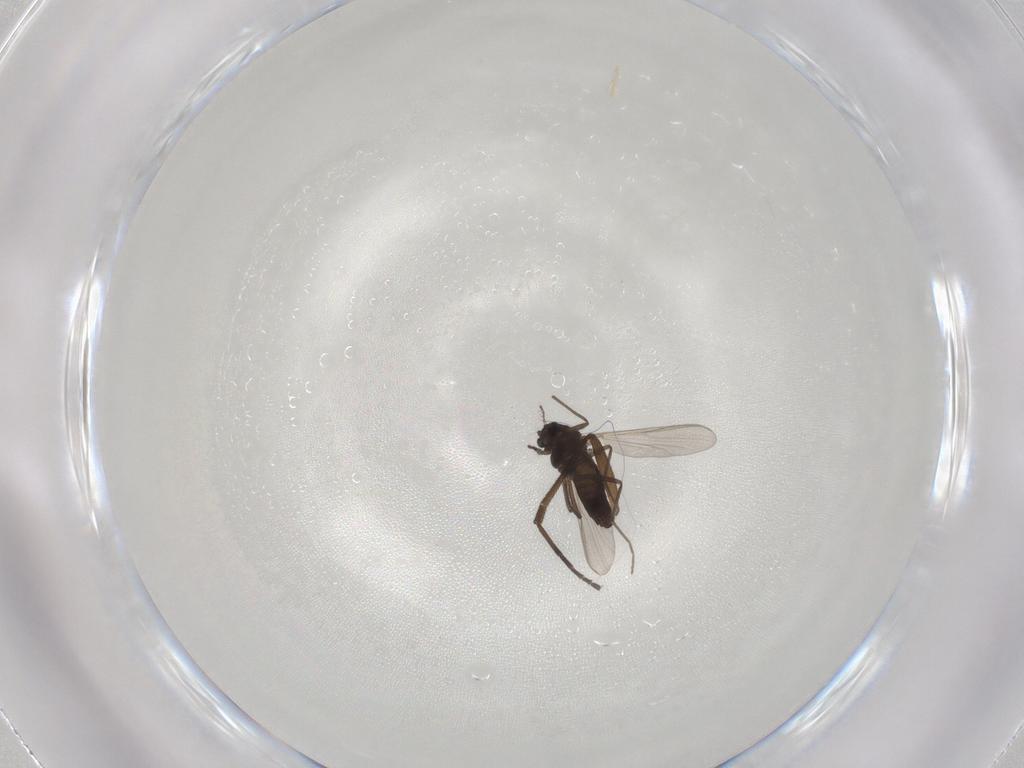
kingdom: Animalia
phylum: Arthropoda
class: Insecta
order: Diptera
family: Chironomidae
